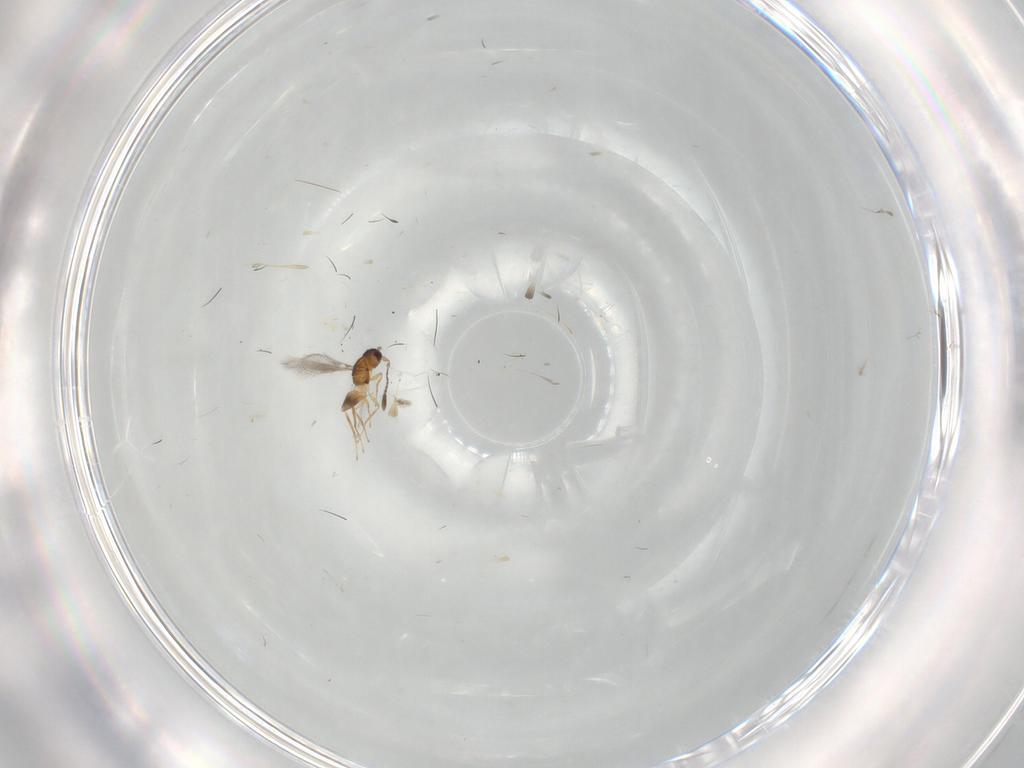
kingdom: Animalia
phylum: Arthropoda
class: Insecta
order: Hymenoptera
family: Mymaridae
